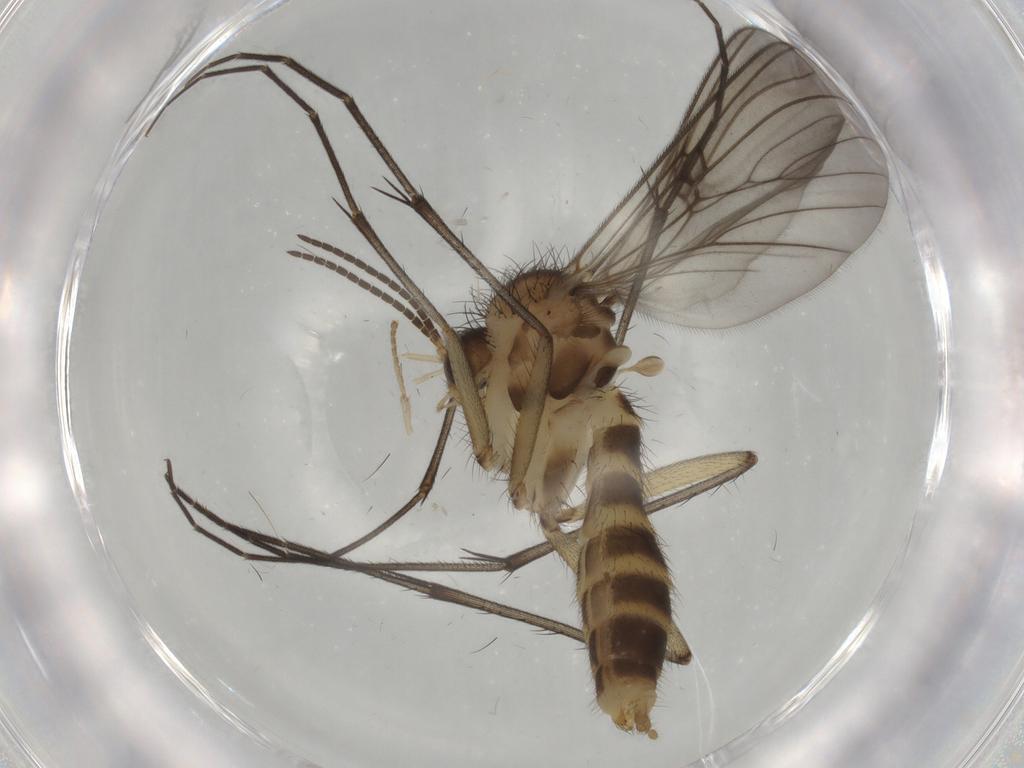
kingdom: Animalia
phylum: Arthropoda
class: Insecta
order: Diptera
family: Mycetophilidae
